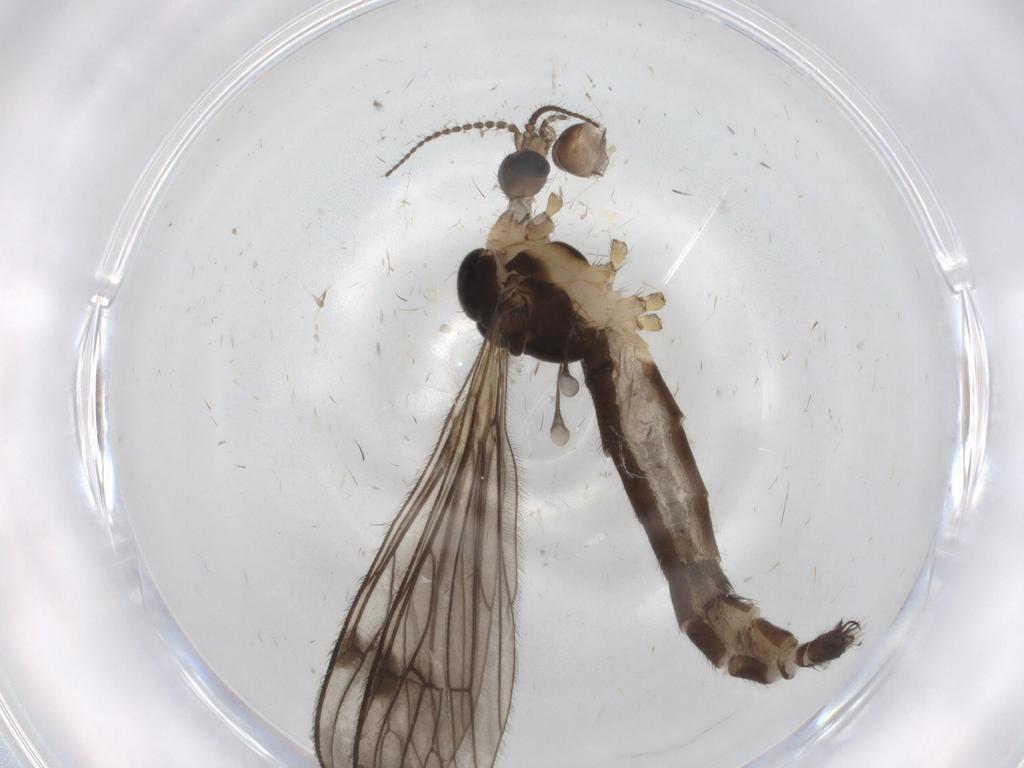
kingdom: Animalia
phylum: Arthropoda
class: Insecta
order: Diptera
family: Limoniidae
